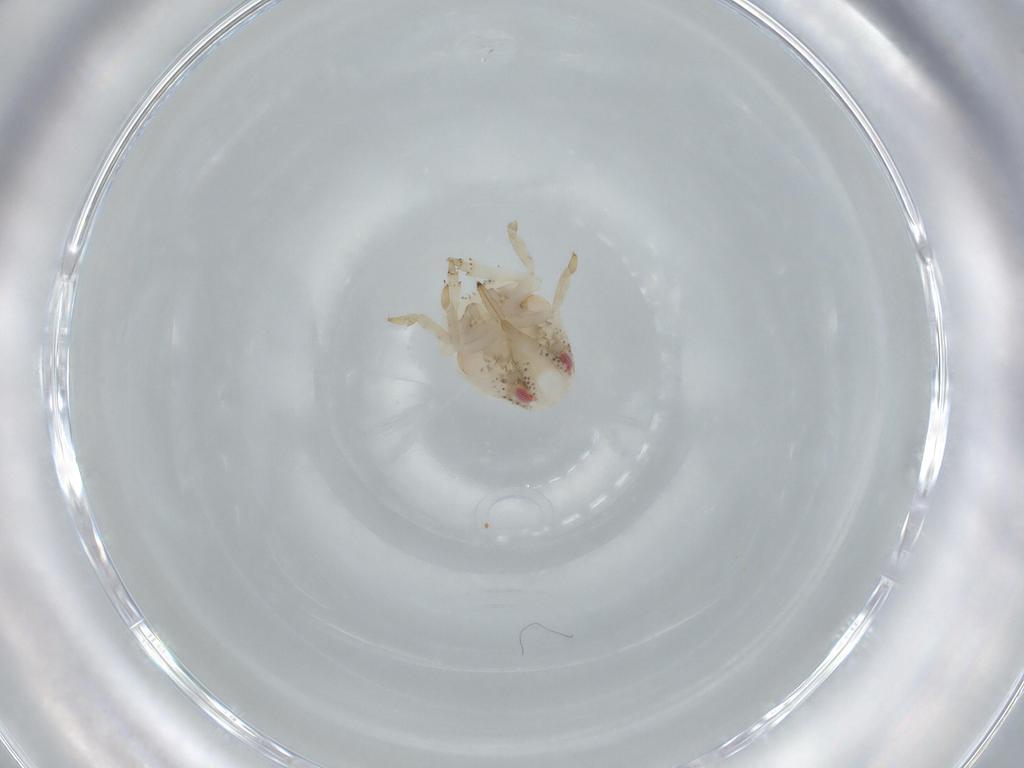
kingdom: Animalia
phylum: Arthropoda
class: Insecta
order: Hemiptera
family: Acanaloniidae
